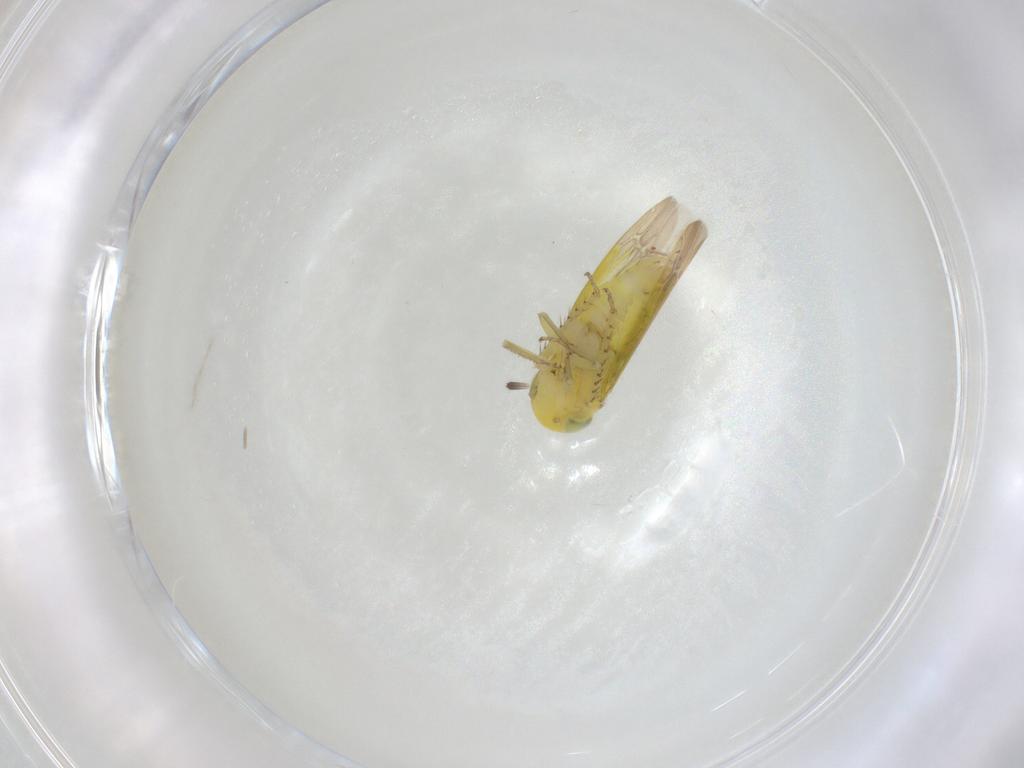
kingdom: Animalia
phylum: Arthropoda
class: Insecta
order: Hemiptera
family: Cicadellidae
